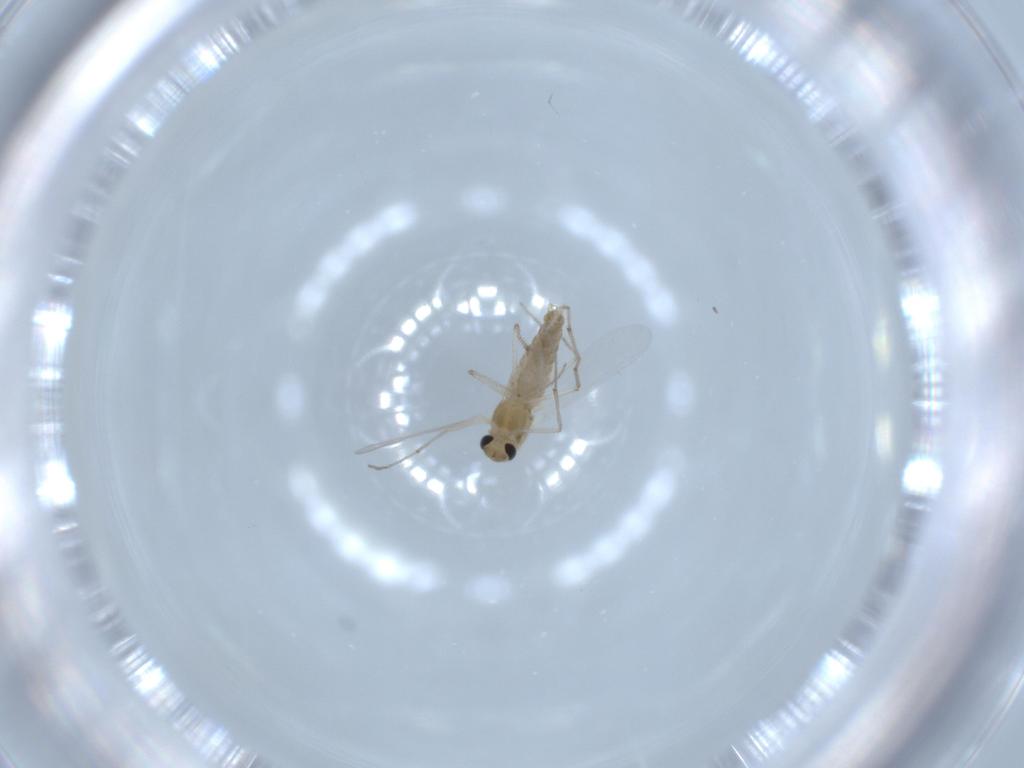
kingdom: Animalia
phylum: Arthropoda
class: Insecta
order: Diptera
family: Chironomidae
